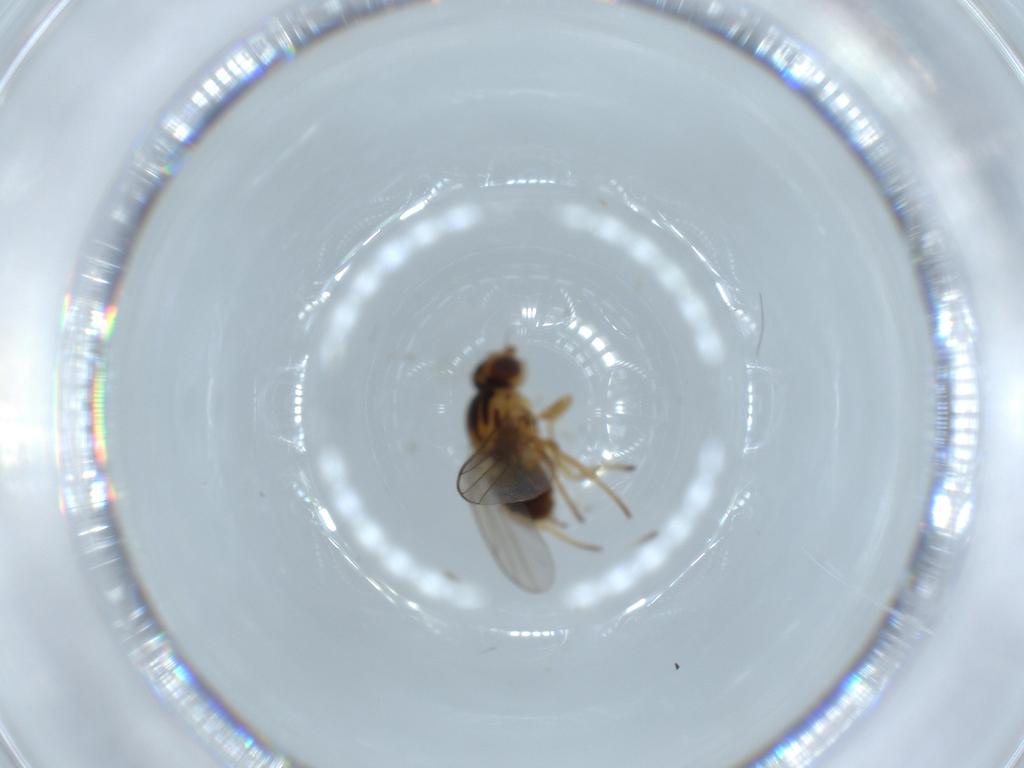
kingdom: Animalia
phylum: Arthropoda
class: Insecta
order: Diptera
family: Chloropidae
